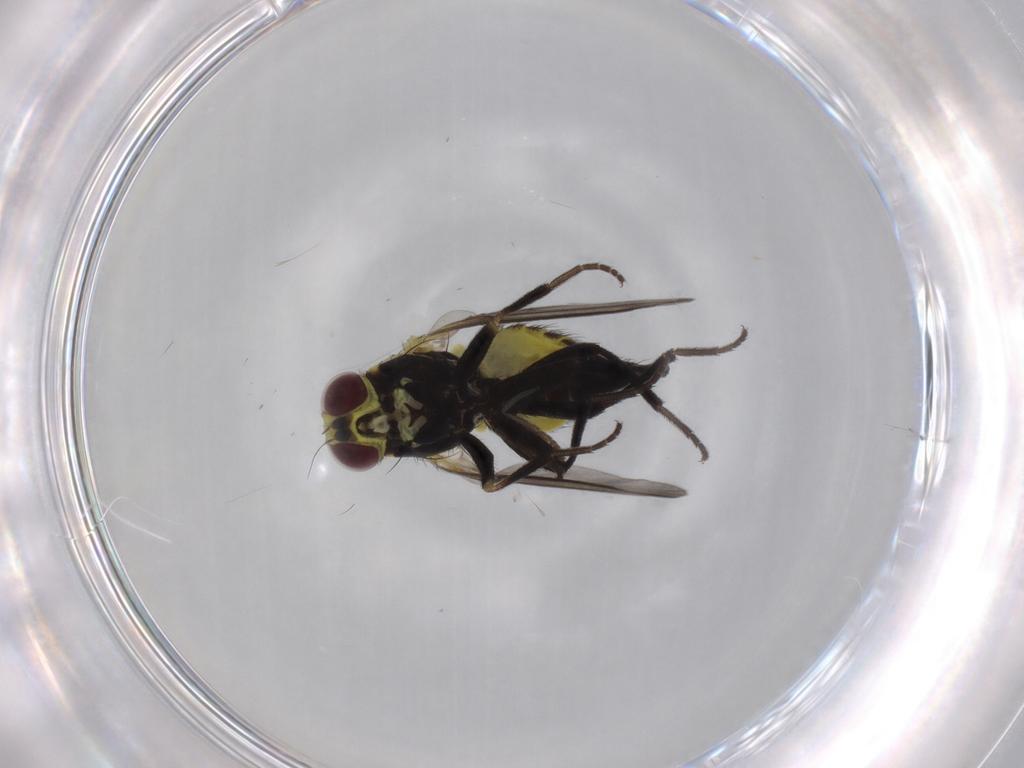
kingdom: Animalia
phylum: Arthropoda
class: Insecta
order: Diptera
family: Agromyzidae
